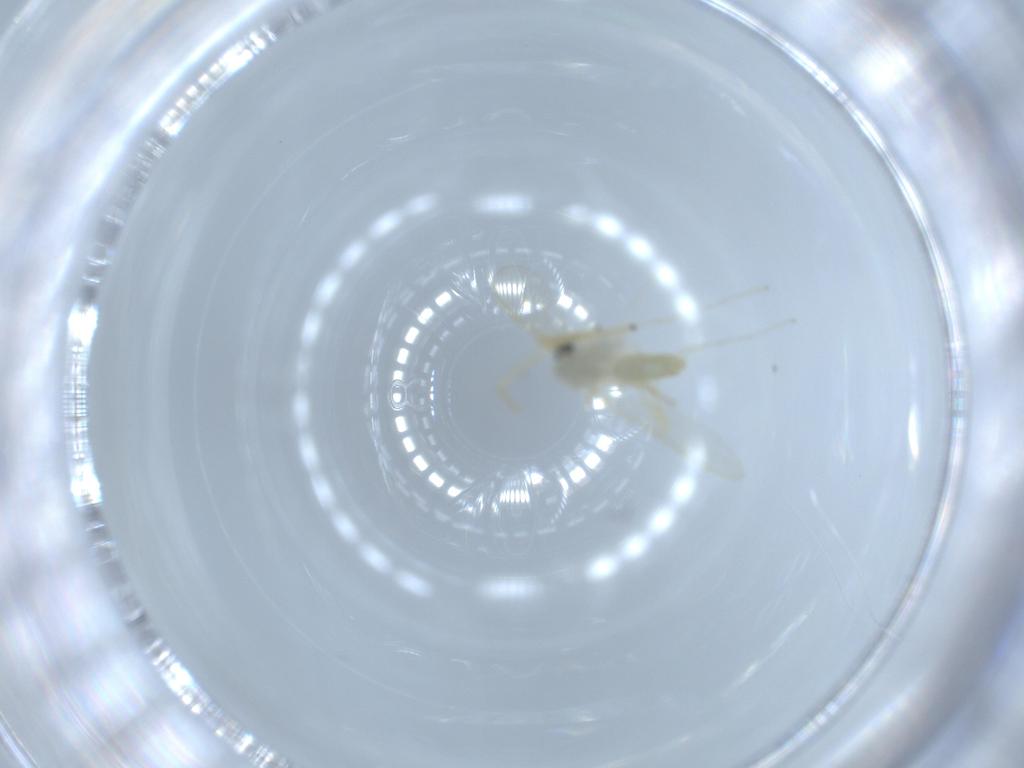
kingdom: Animalia
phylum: Arthropoda
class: Insecta
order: Diptera
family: Chironomidae
